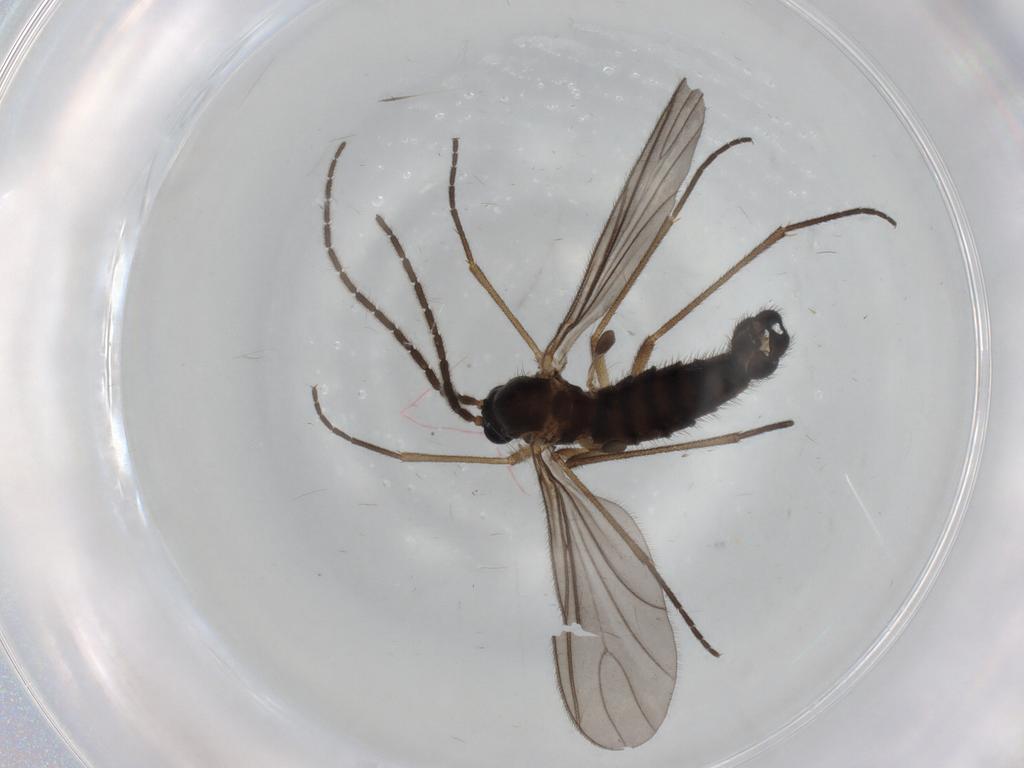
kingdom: Animalia
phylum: Arthropoda
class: Insecta
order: Diptera
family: Sciaridae
